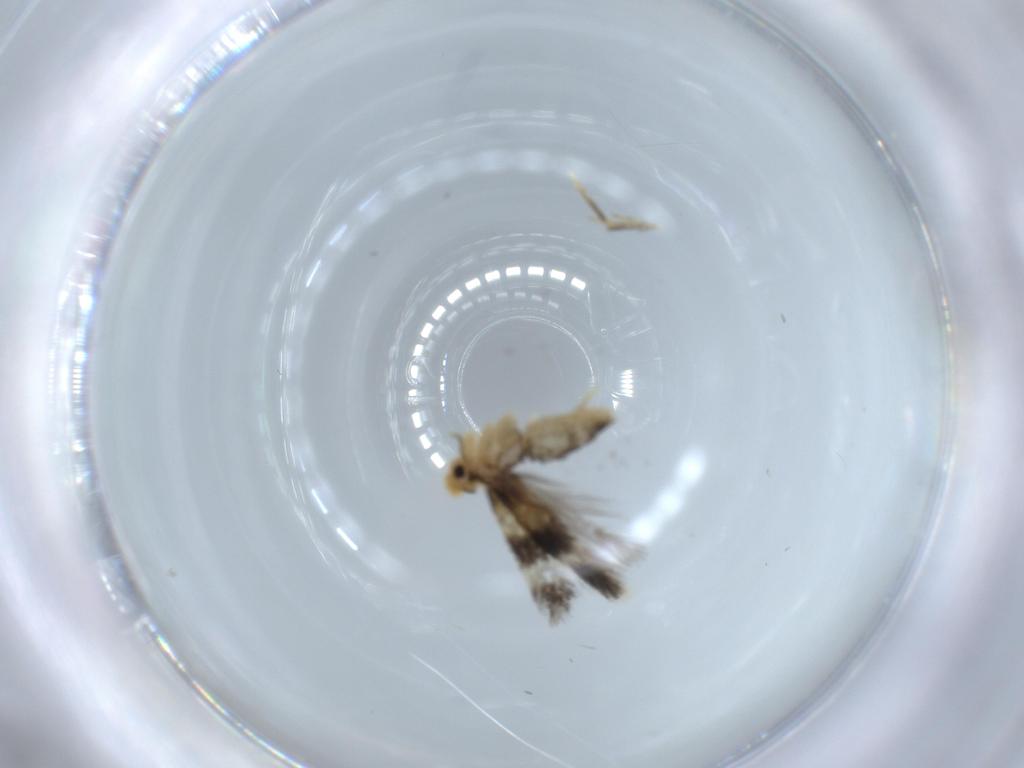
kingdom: Animalia
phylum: Arthropoda
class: Insecta
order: Lepidoptera
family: Nepticulidae
